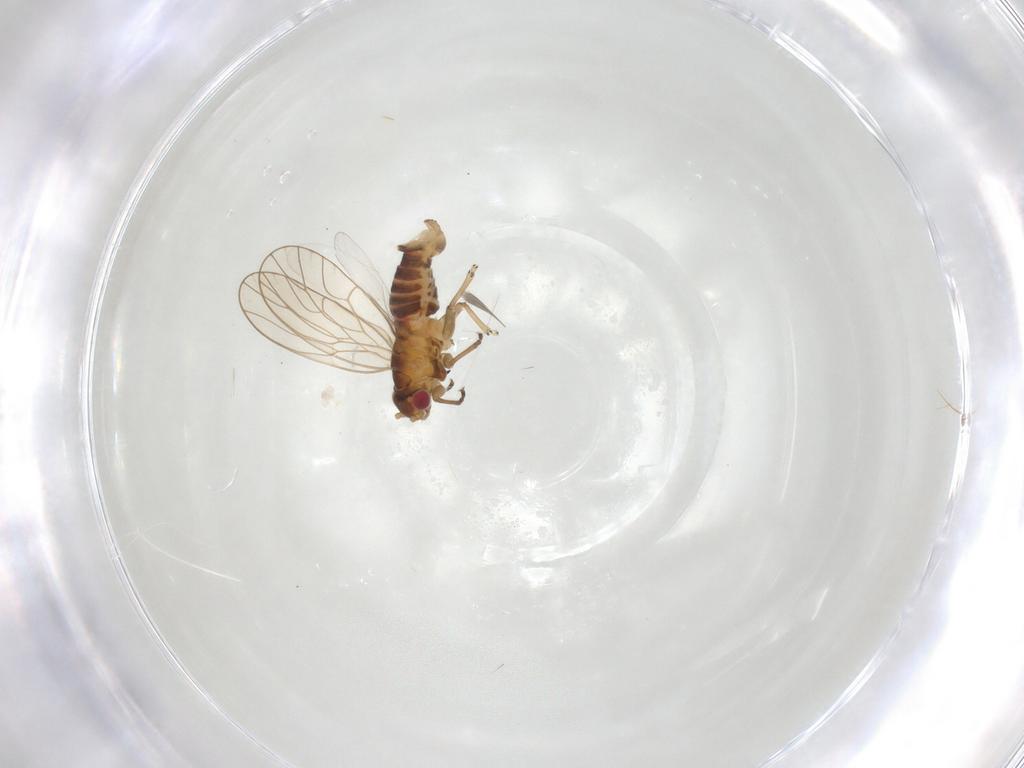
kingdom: Animalia
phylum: Arthropoda
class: Insecta
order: Hemiptera
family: Psyllidae
